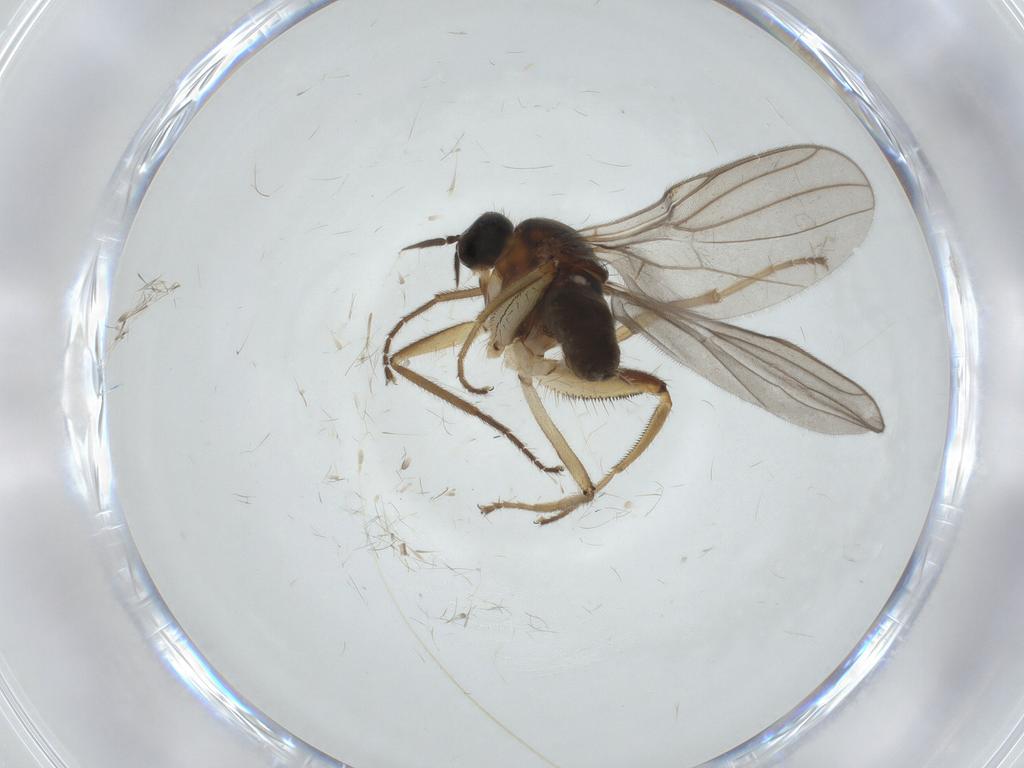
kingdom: Animalia
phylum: Arthropoda
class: Insecta
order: Diptera
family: Hybotidae
